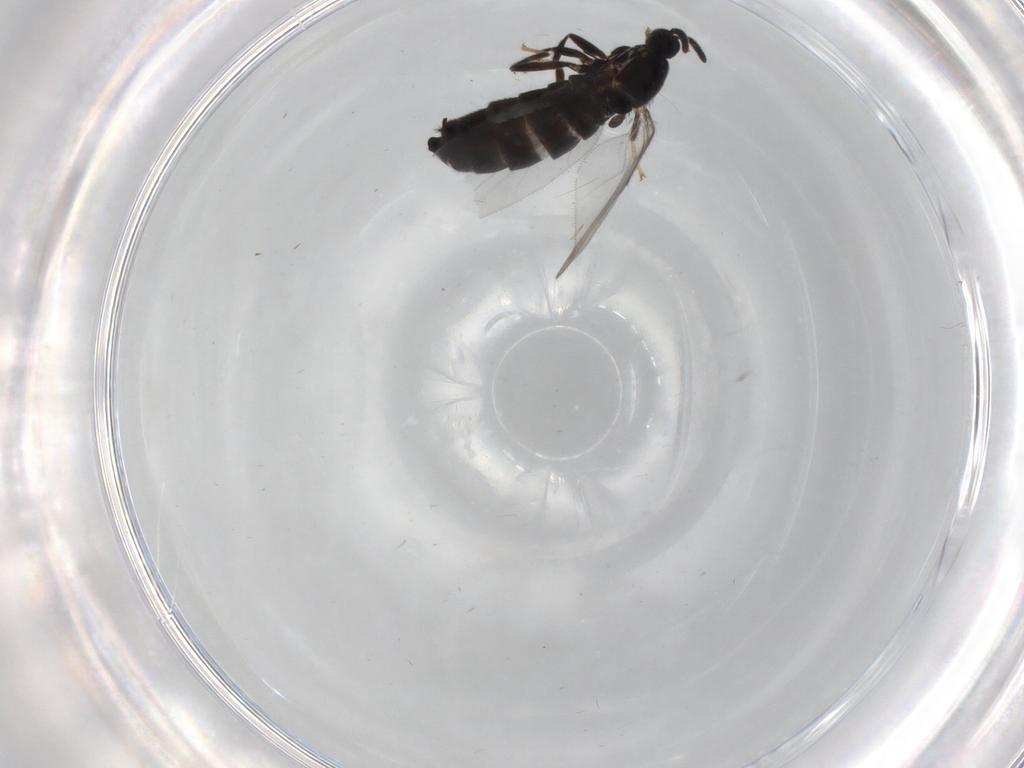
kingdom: Animalia
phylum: Arthropoda
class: Insecta
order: Diptera
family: Scatopsidae
